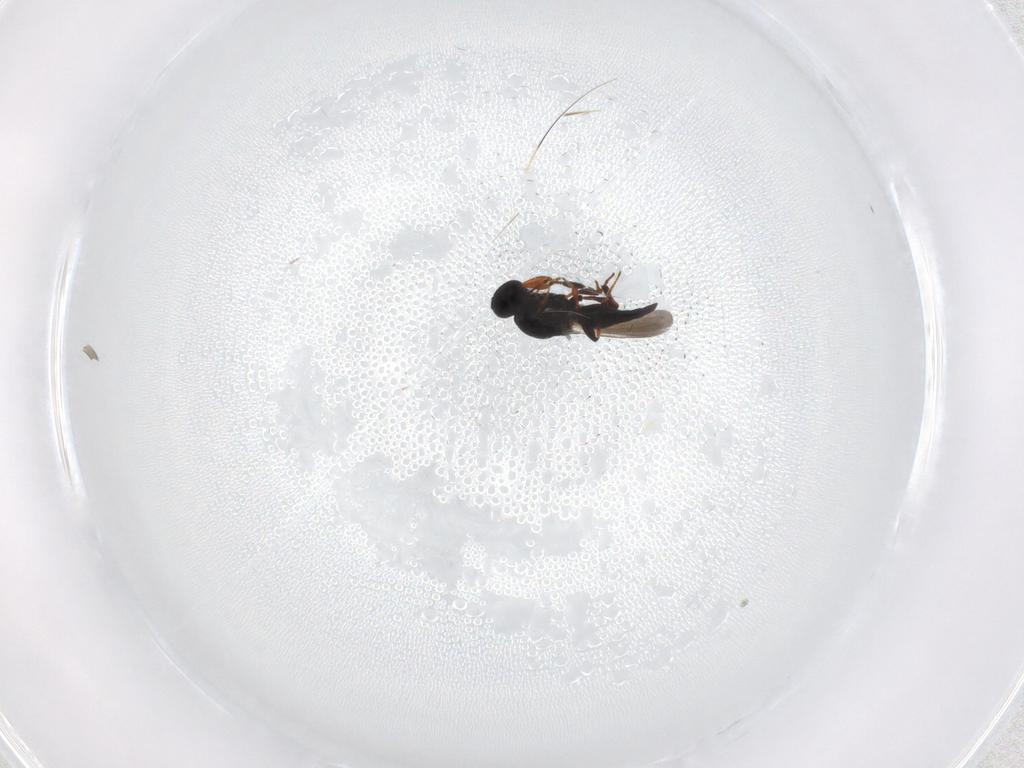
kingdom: Animalia
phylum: Arthropoda
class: Insecta
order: Hymenoptera
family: Platygastridae
